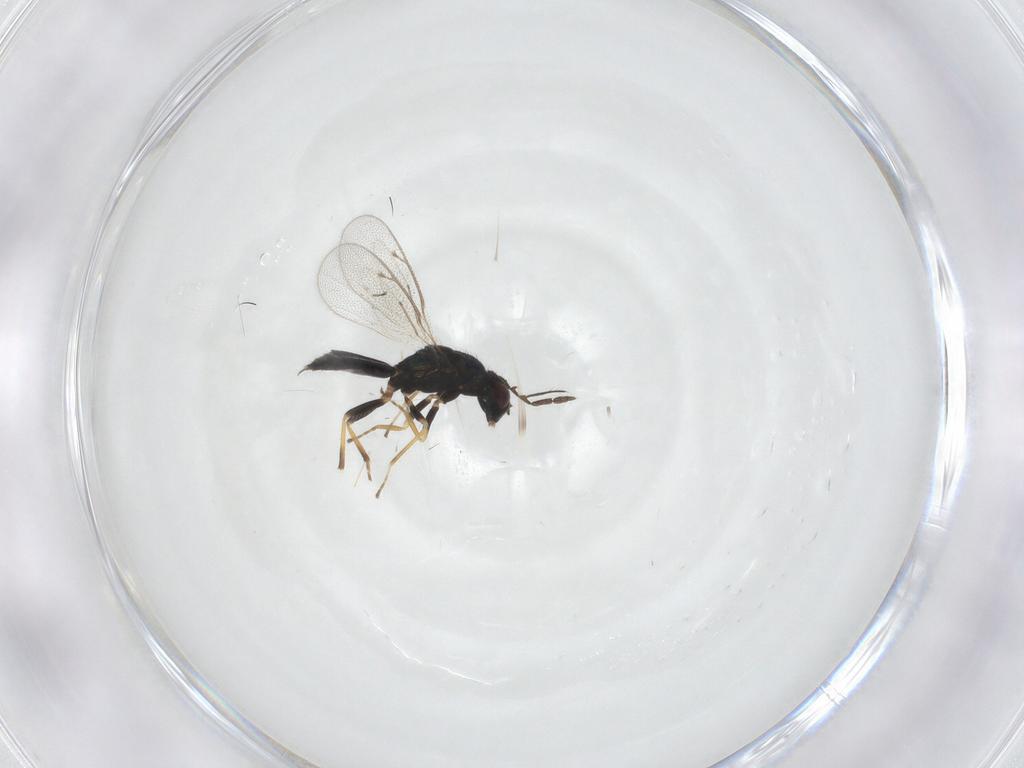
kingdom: Animalia
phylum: Arthropoda
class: Insecta
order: Hymenoptera
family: Eulophidae
